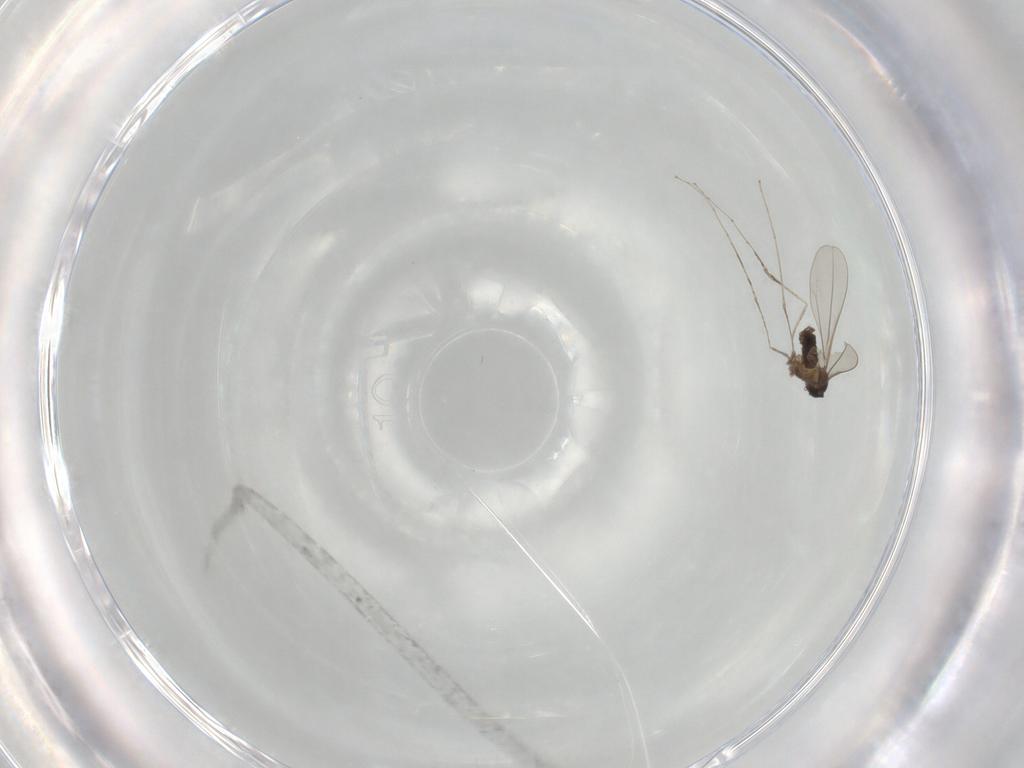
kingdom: Animalia
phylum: Arthropoda
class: Insecta
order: Diptera
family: Cecidomyiidae
